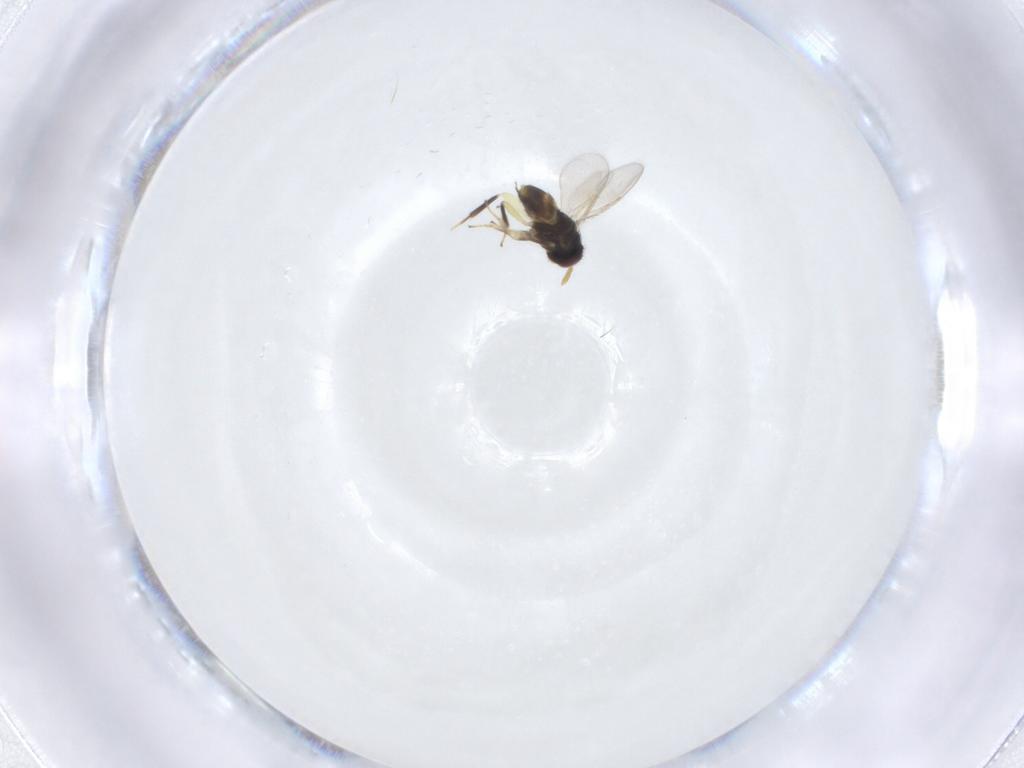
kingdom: Animalia
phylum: Arthropoda
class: Insecta
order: Hymenoptera
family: Aphelinidae
